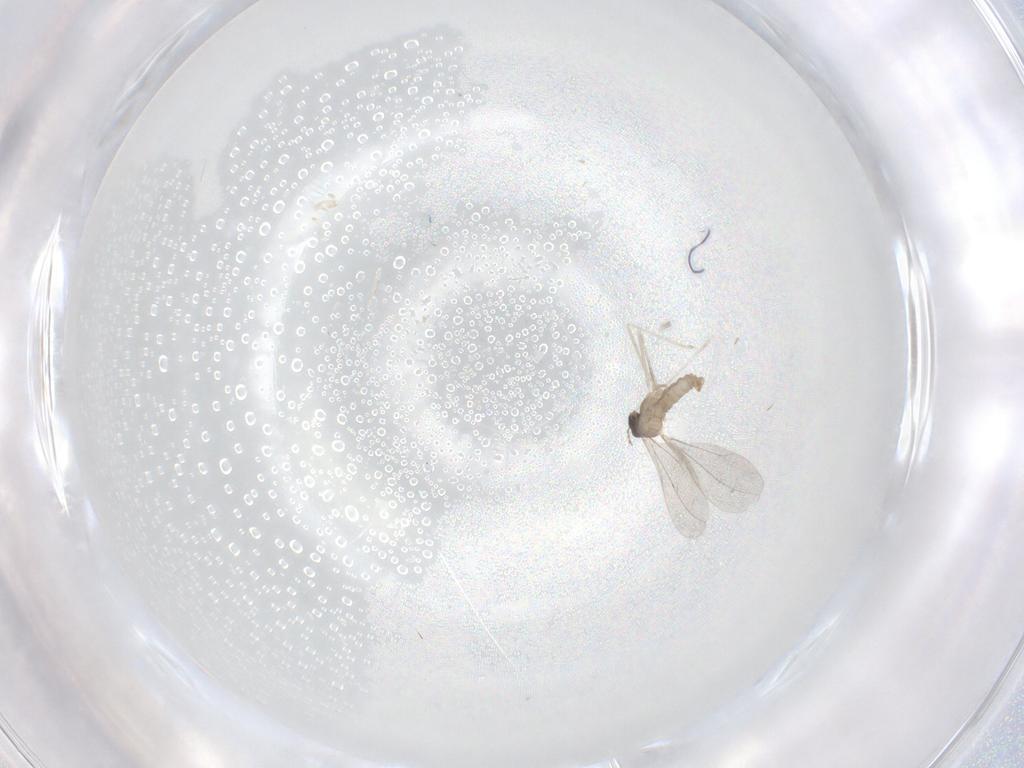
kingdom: Animalia
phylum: Arthropoda
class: Insecta
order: Diptera
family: Cecidomyiidae
